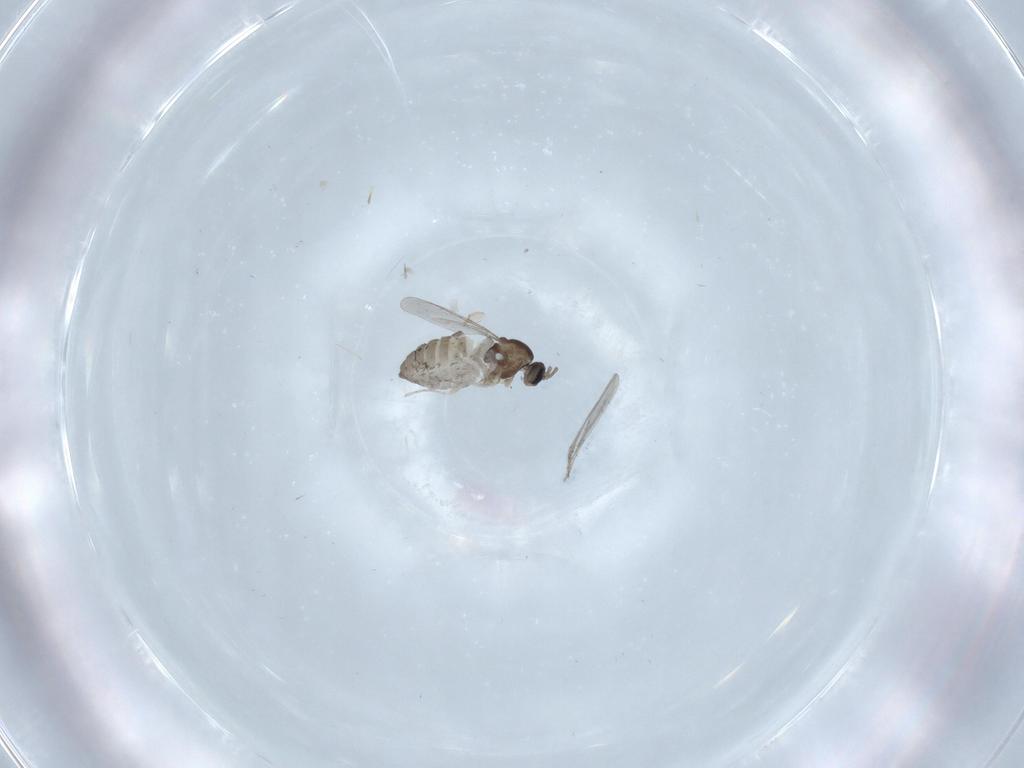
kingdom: Animalia
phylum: Arthropoda
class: Insecta
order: Diptera
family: Cecidomyiidae
